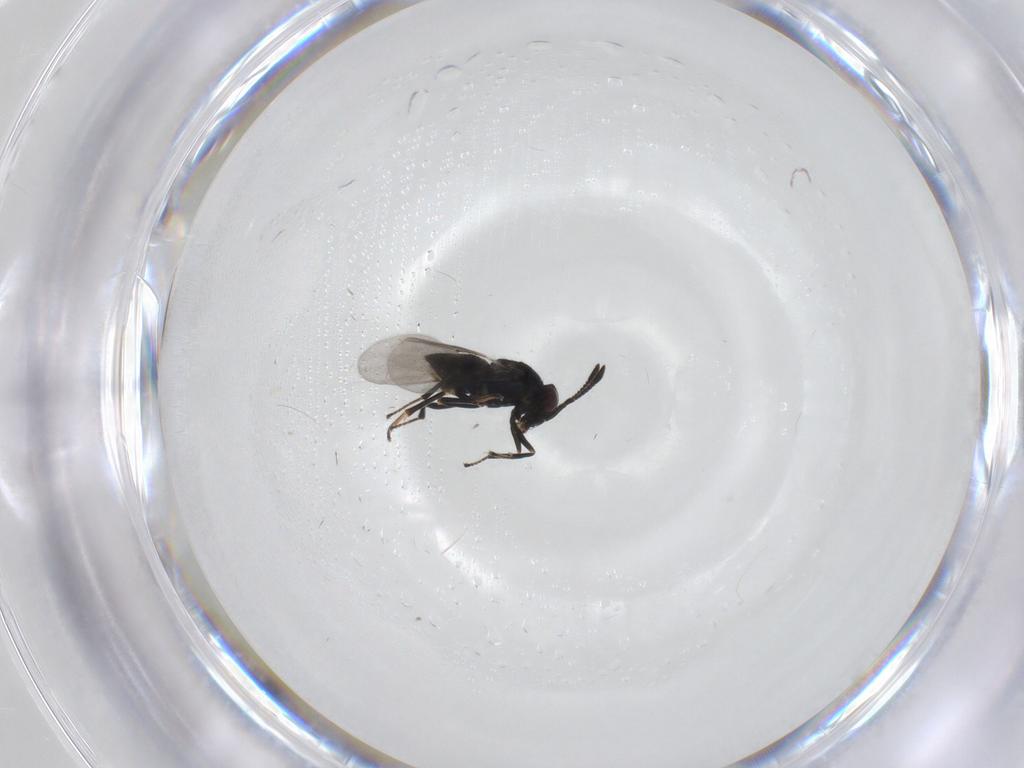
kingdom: Animalia
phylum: Arthropoda
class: Insecta
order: Hymenoptera
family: Encyrtidae
